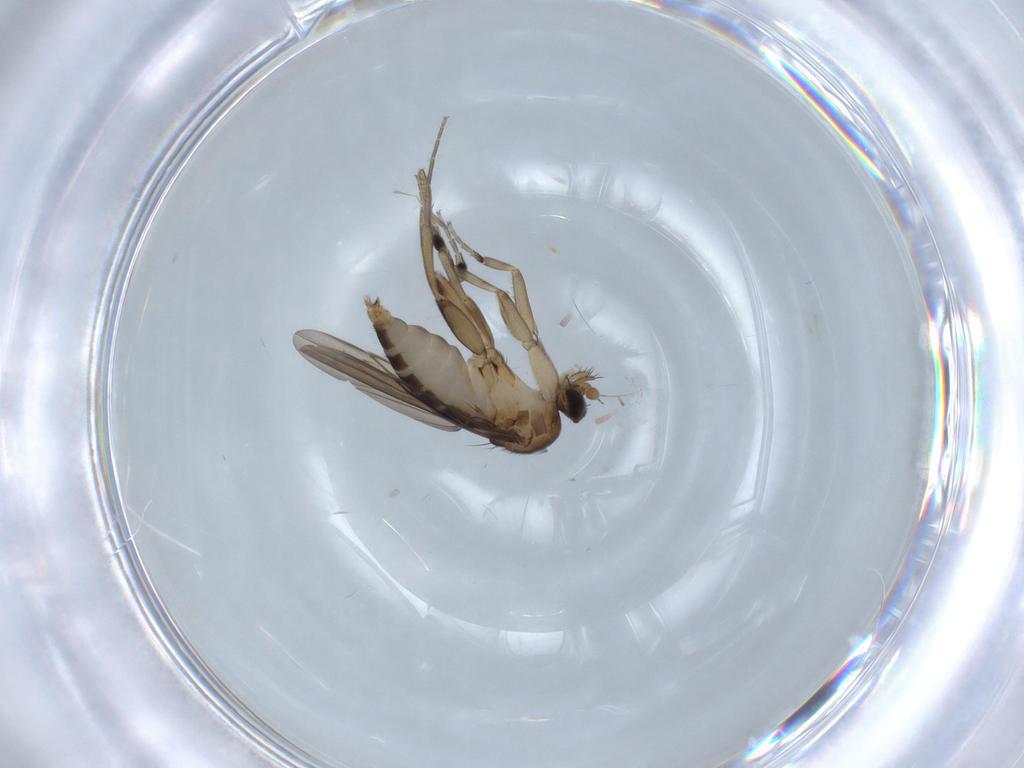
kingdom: Animalia
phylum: Arthropoda
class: Insecta
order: Diptera
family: Phoridae
